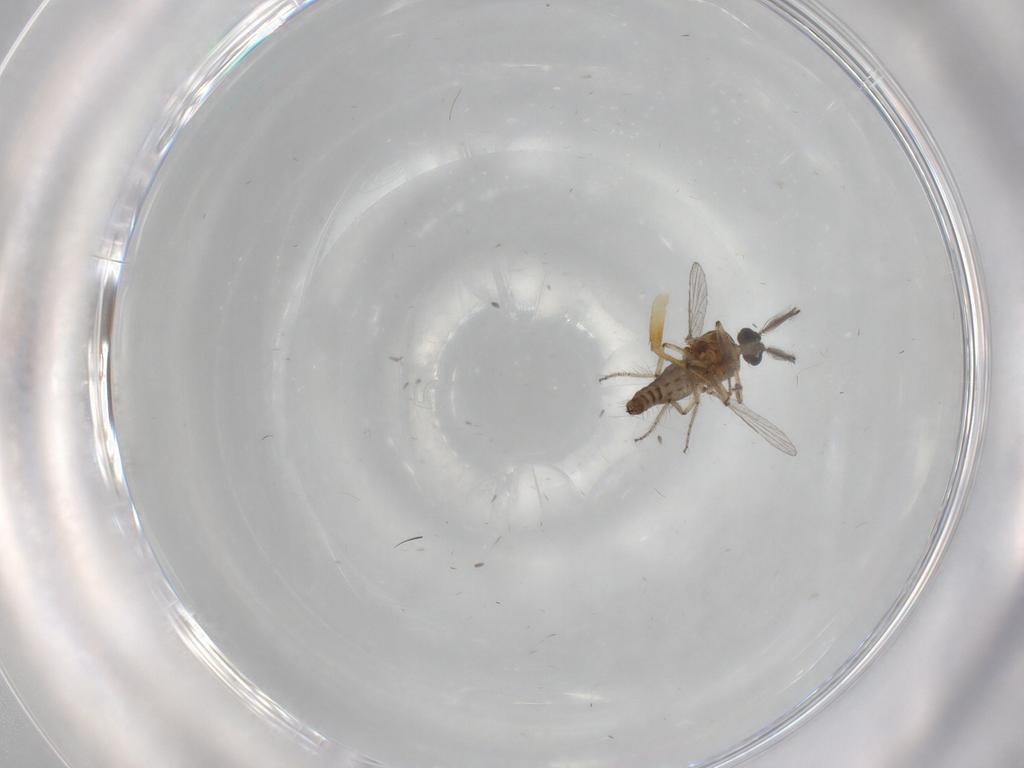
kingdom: Animalia
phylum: Arthropoda
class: Insecta
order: Diptera
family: Ceratopogonidae
